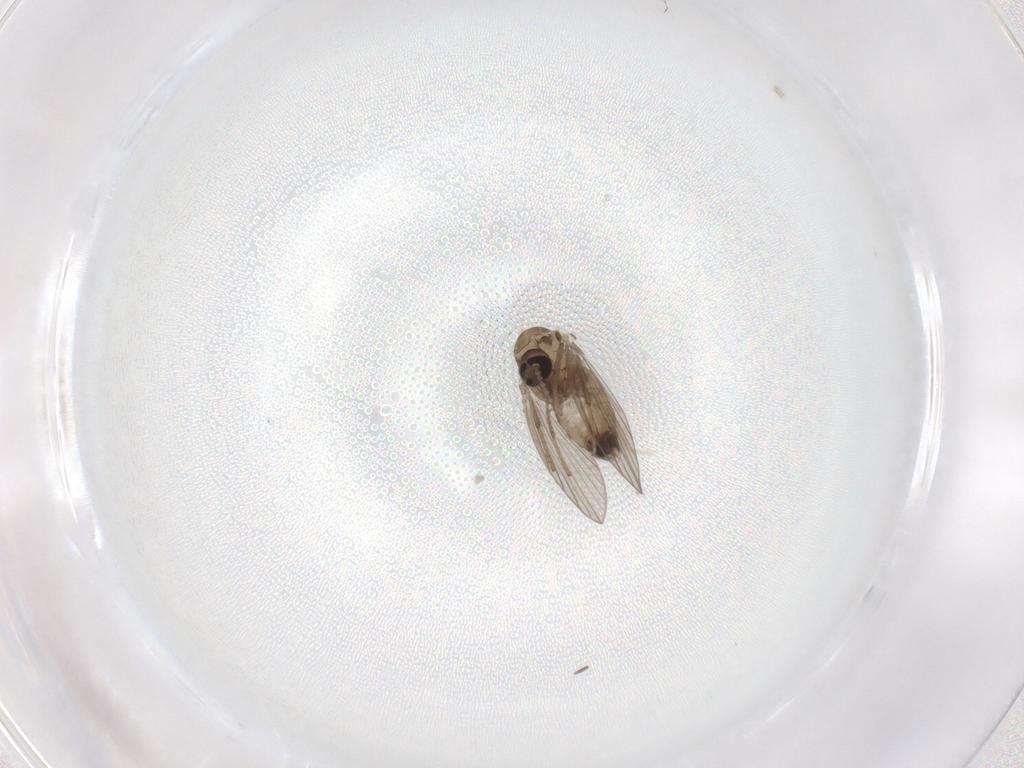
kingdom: Animalia
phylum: Arthropoda
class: Insecta
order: Diptera
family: Psychodidae
